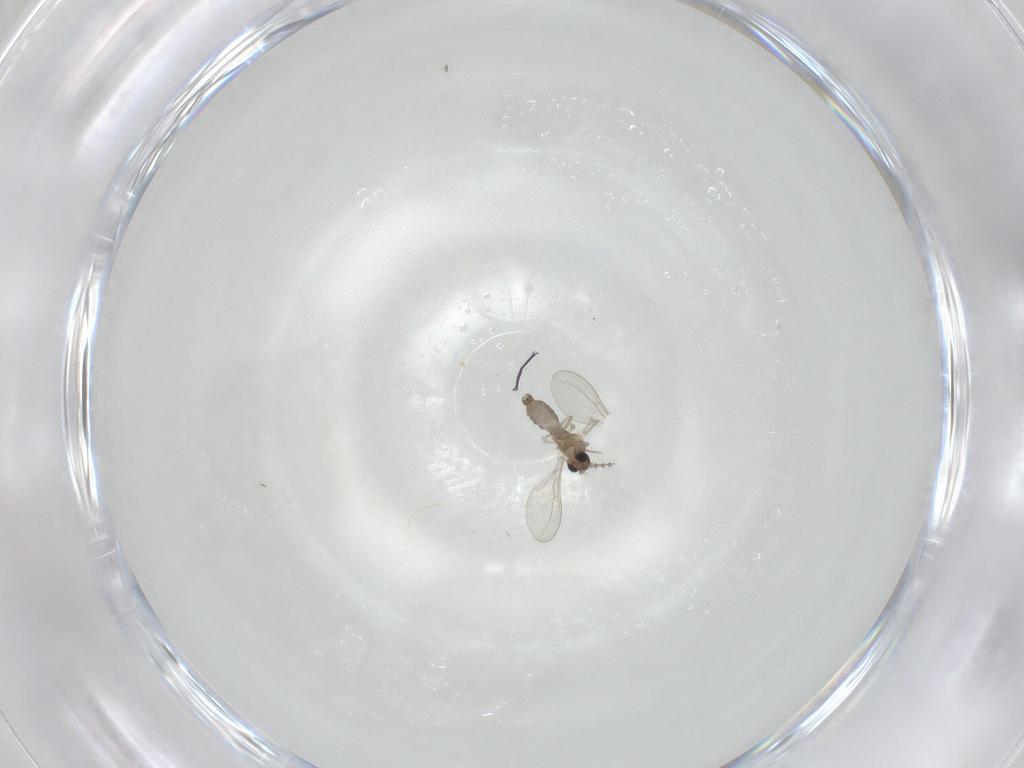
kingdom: Animalia
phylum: Arthropoda
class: Insecta
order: Diptera
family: Cecidomyiidae
